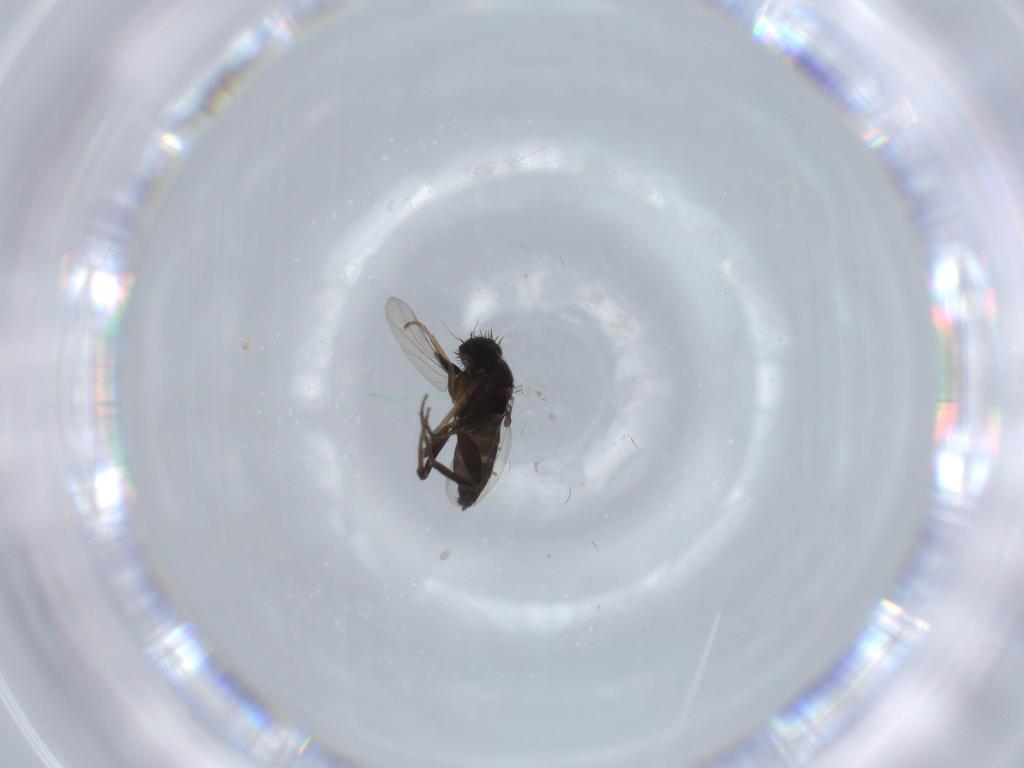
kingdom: Animalia
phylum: Arthropoda
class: Insecta
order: Diptera
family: Phoridae
